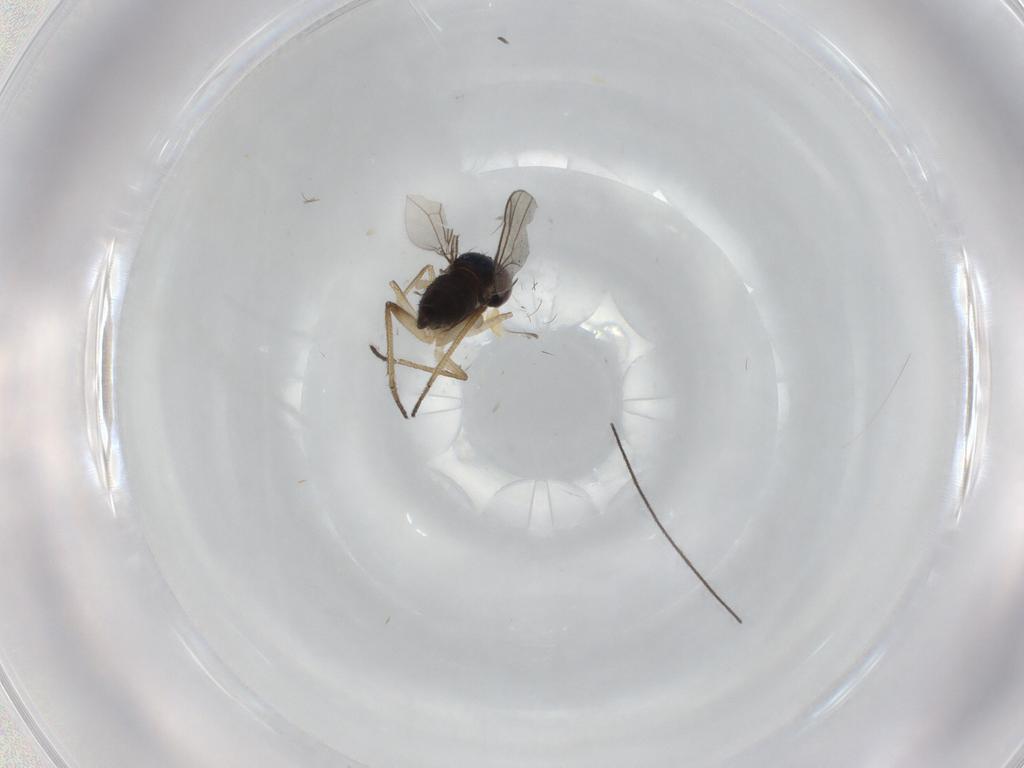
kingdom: Animalia
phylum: Arthropoda
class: Insecta
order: Diptera
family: Dolichopodidae
